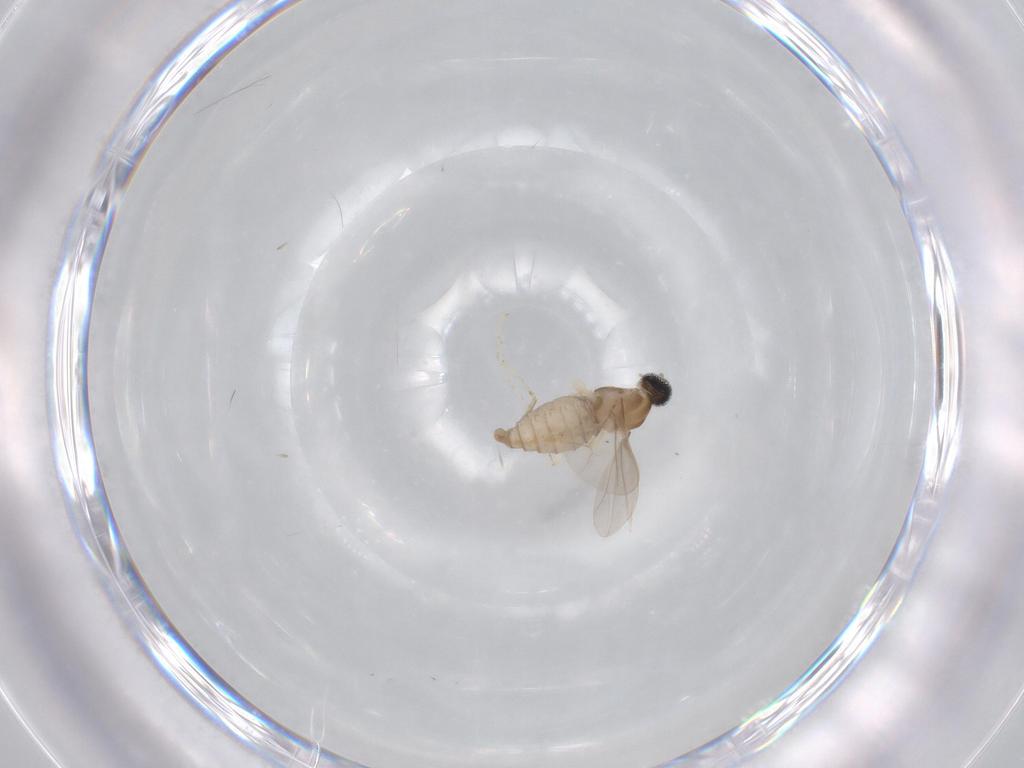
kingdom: Animalia
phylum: Arthropoda
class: Insecta
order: Diptera
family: Cecidomyiidae
